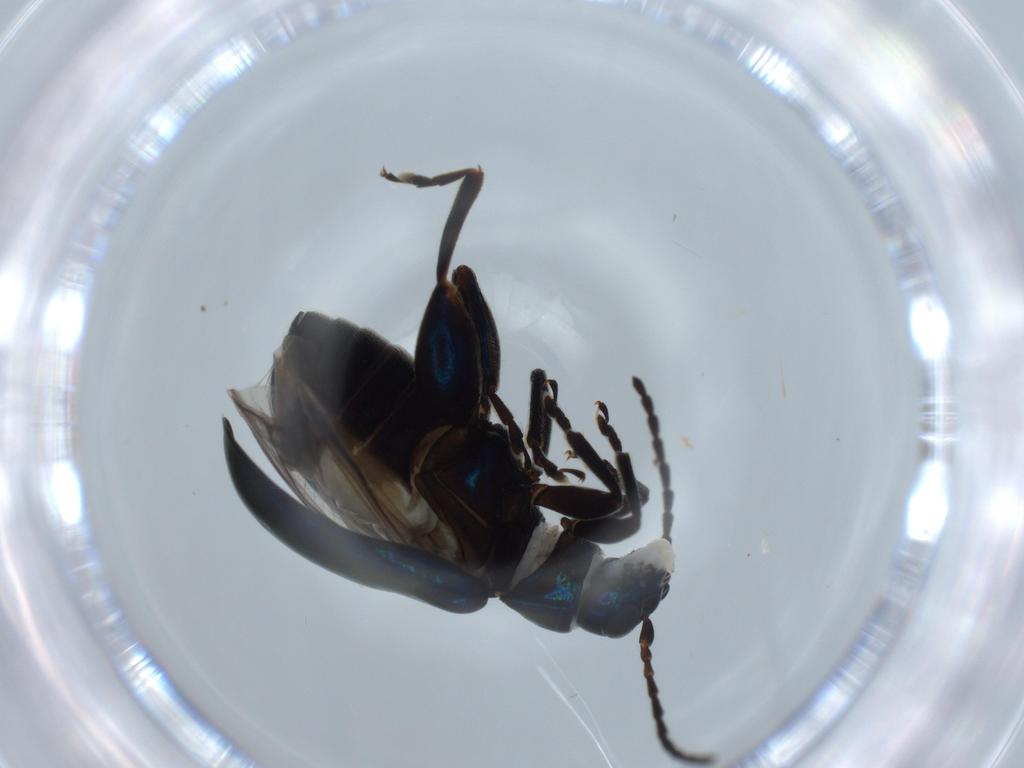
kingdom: Animalia
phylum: Arthropoda
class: Insecta
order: Coleoptera
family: Chrysomelidae
